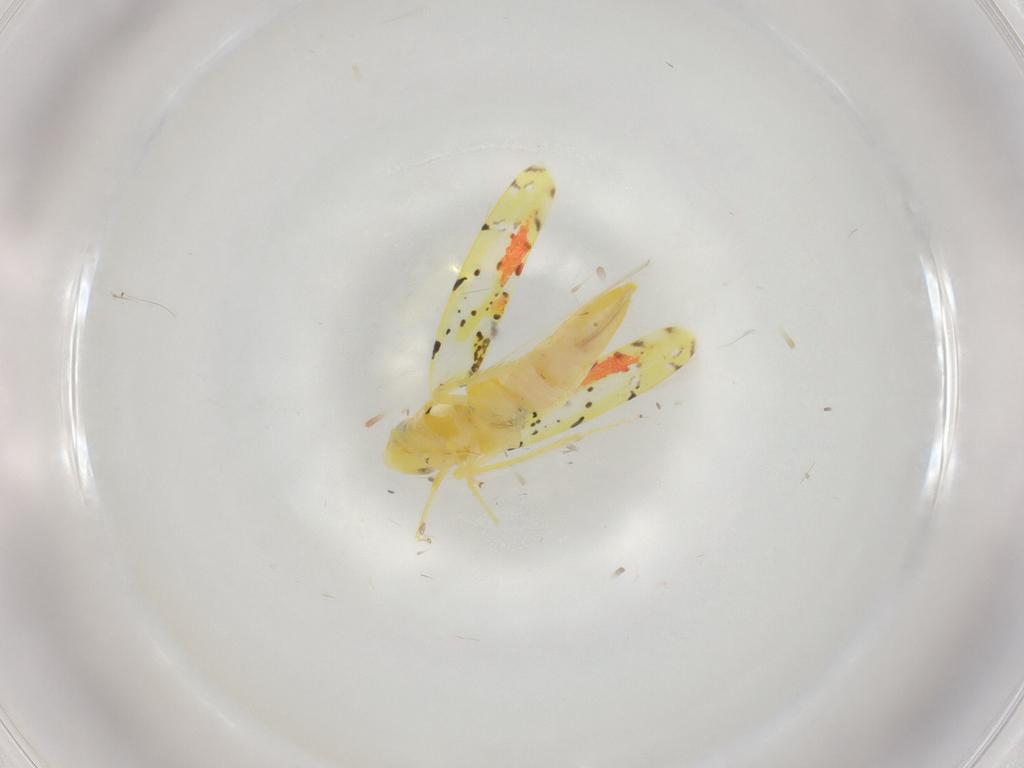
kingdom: Animalia
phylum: Arthropoda
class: Insecta
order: Hemiptera
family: Cicadellidae
